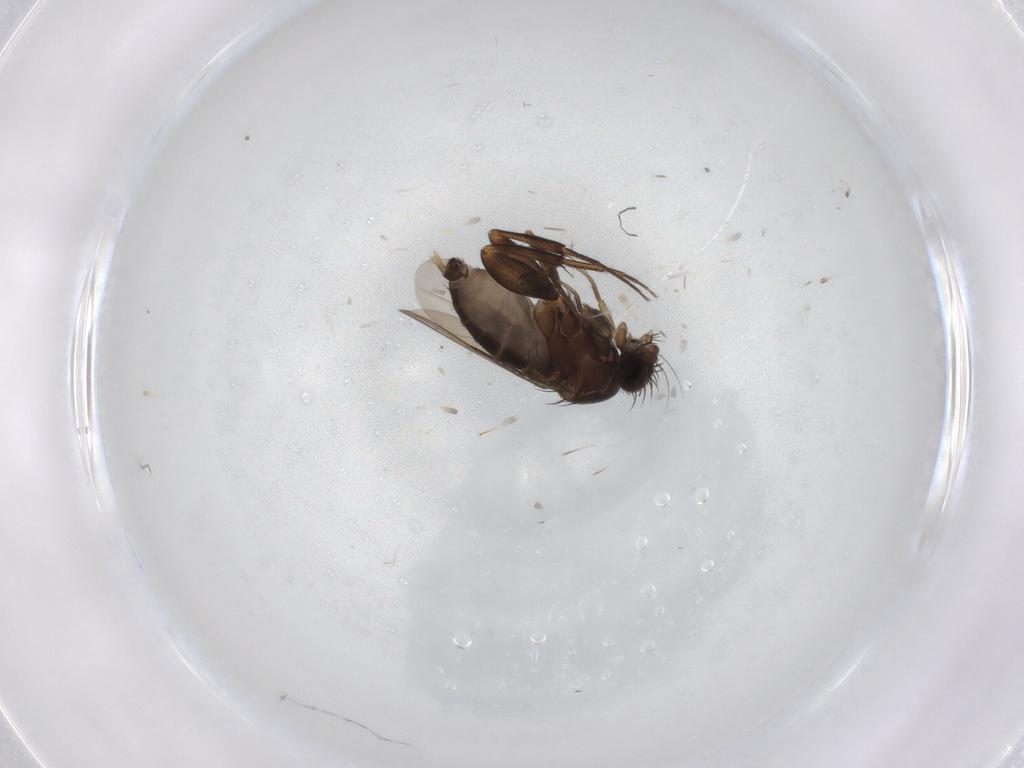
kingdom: Animalia
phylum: Arthropoda
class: Insecta
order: Diptera
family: Phoridae
